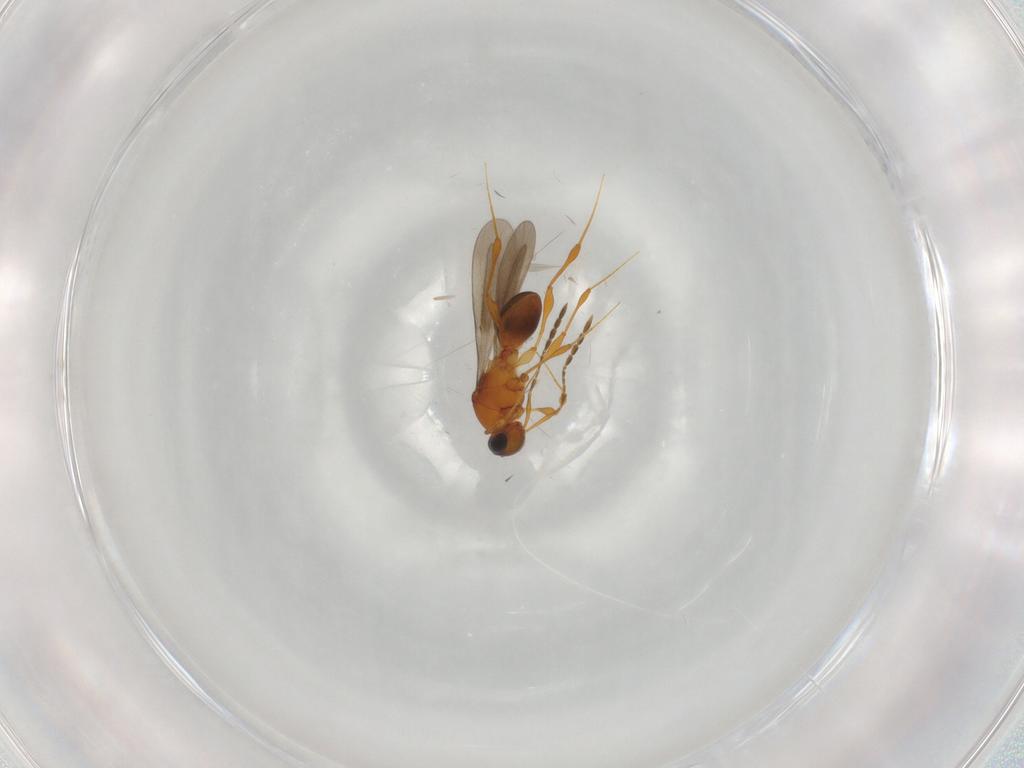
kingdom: Animalia
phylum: Arthropoda
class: Insecta
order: Hymenoptera
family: Platygastridae
